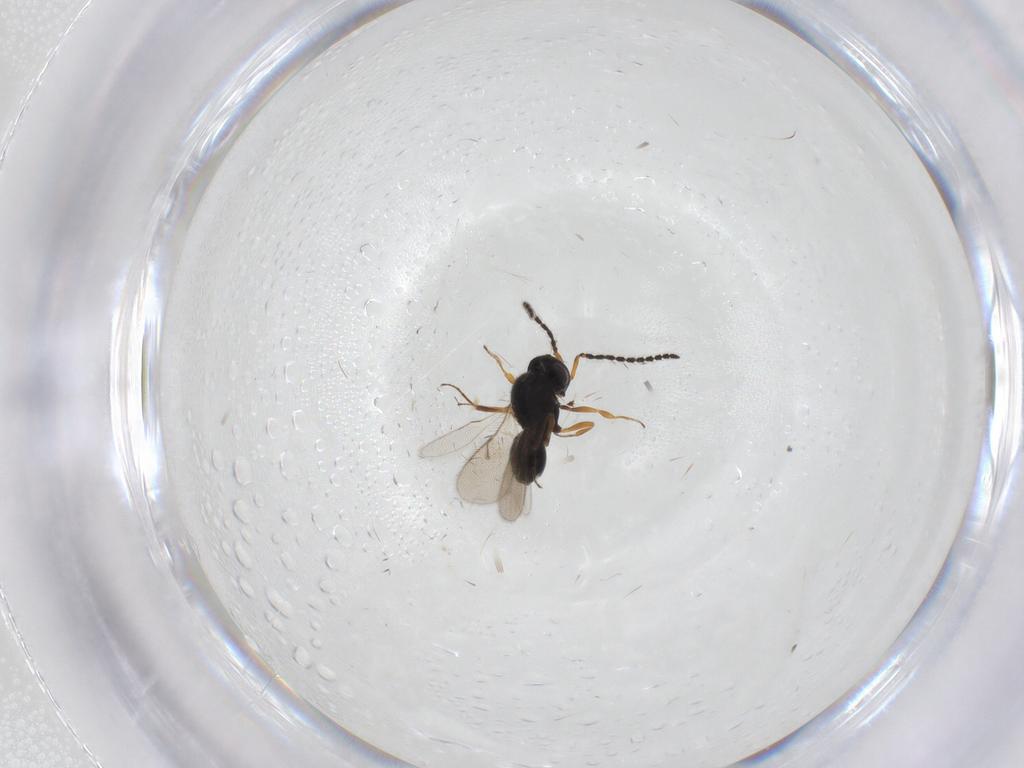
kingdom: Animalia
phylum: Arthropoda
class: Insecta
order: Hymenoptera
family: Scelionidae
